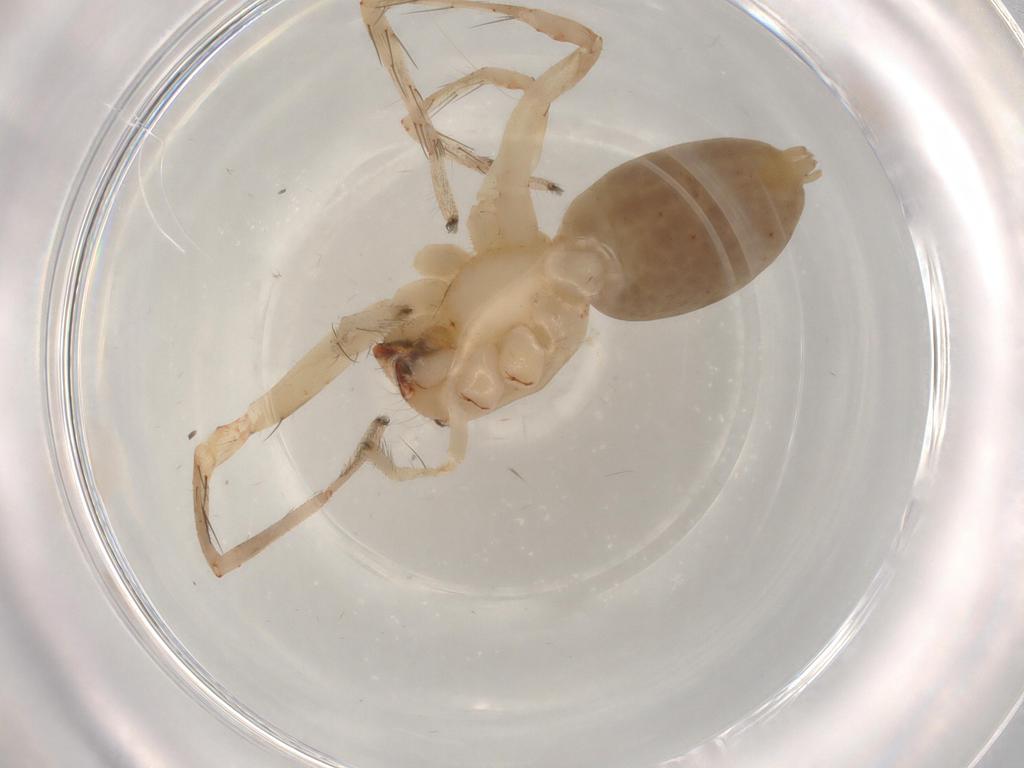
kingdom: Animalia
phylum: Arthropoda
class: Arachnida
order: Araneae
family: Anyphaenidae
